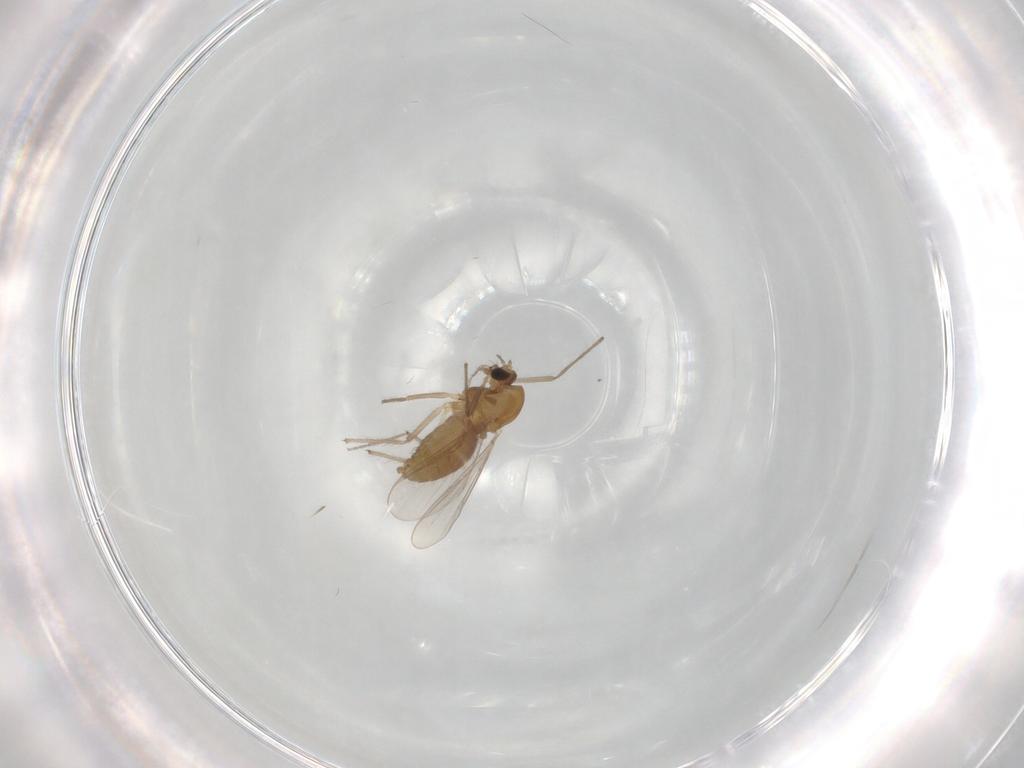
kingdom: Animalia
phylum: Arthropoda
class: Insecta
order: Diptera
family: Chironomidae
